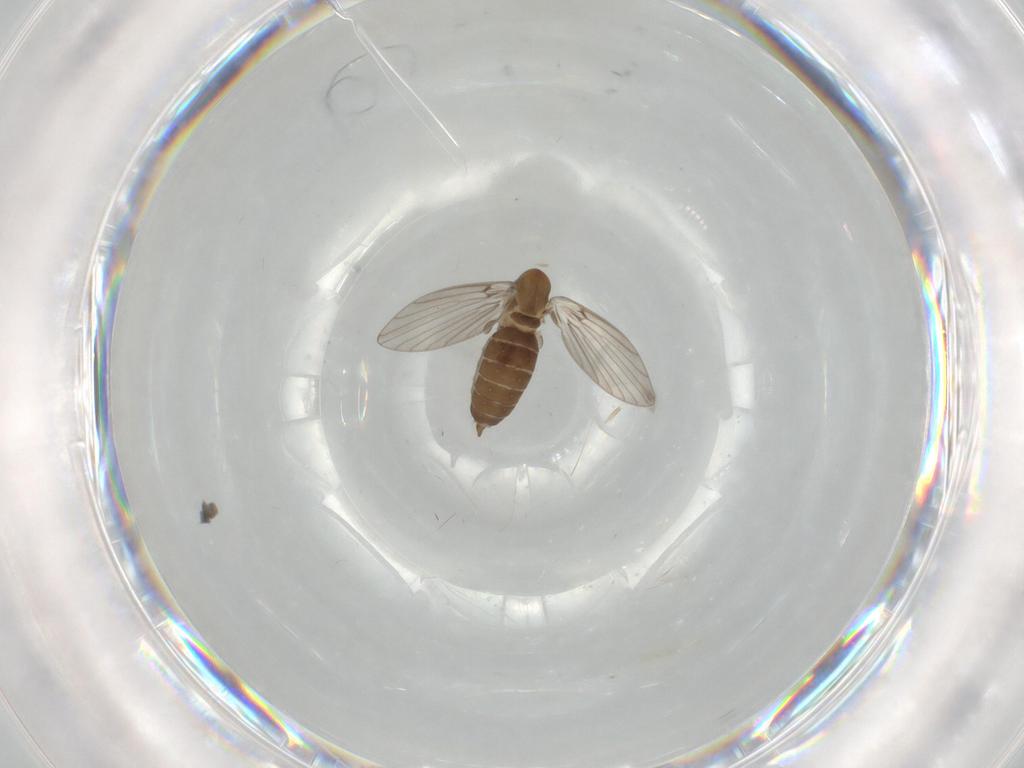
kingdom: Animalia
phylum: Arthropoda
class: Insecta
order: Diptera
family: Psychodidae
